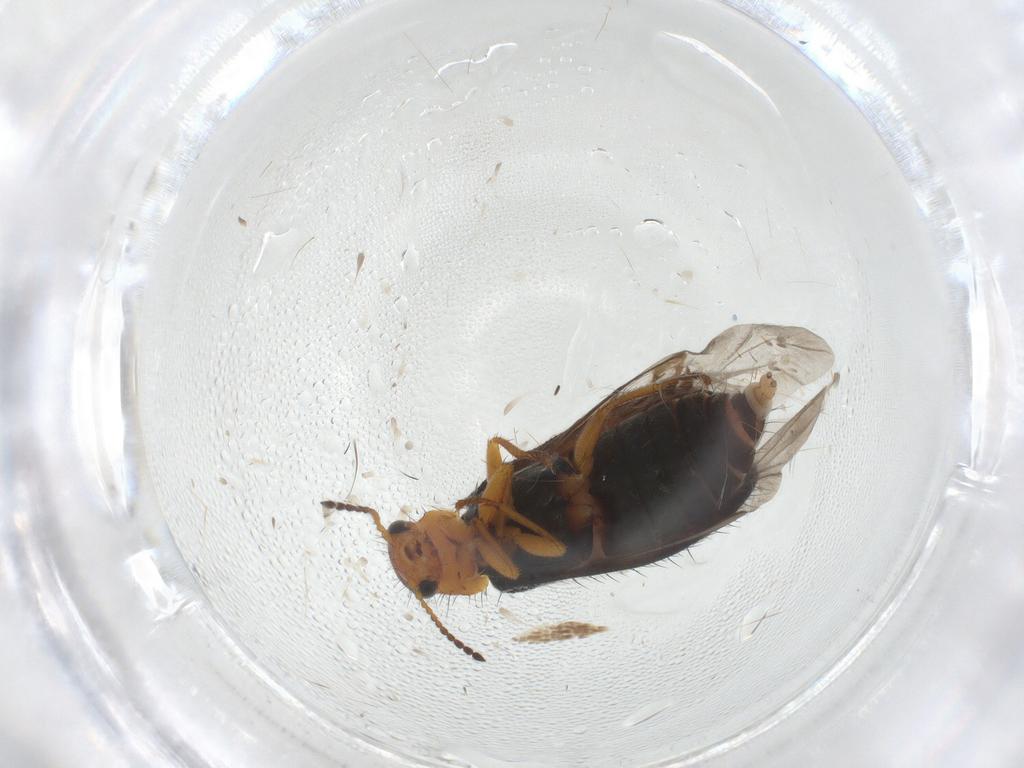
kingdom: Animalia
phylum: Arthropoda
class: Insecta
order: Coleoptera
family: Melyridae
